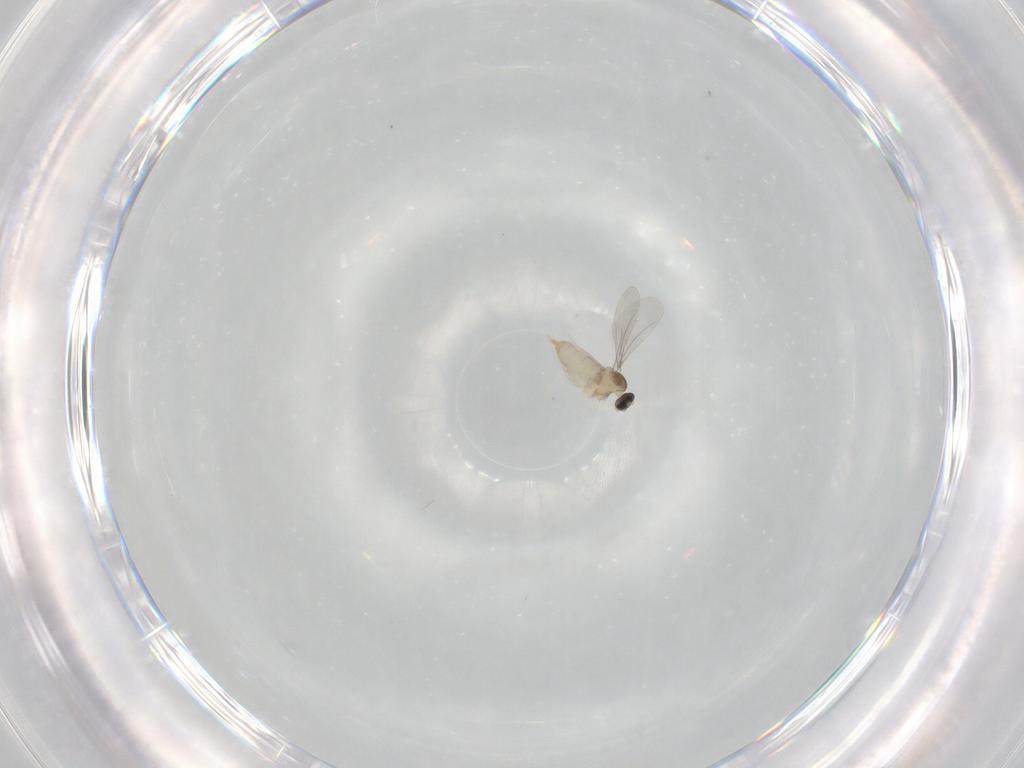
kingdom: Animalia
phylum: Arthropoda
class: Insecta
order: Diptera
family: Cecidomyiidae
